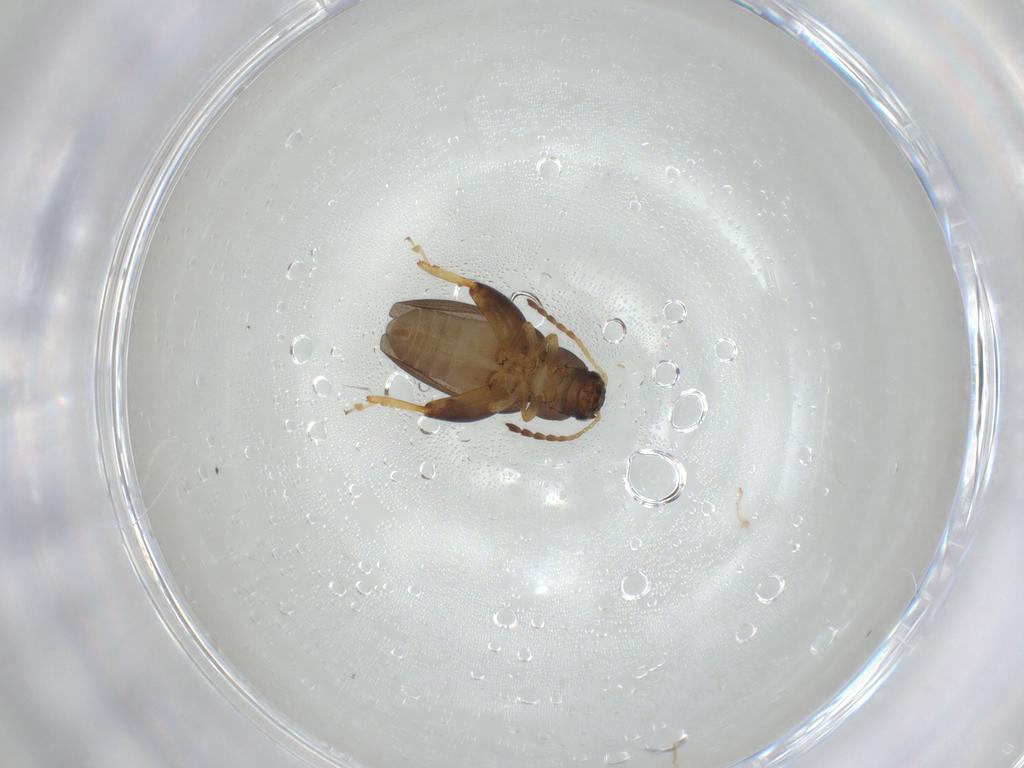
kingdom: Animalia
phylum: Arthropoda
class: Insecta
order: Coleoptera
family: Chrysomelidae
